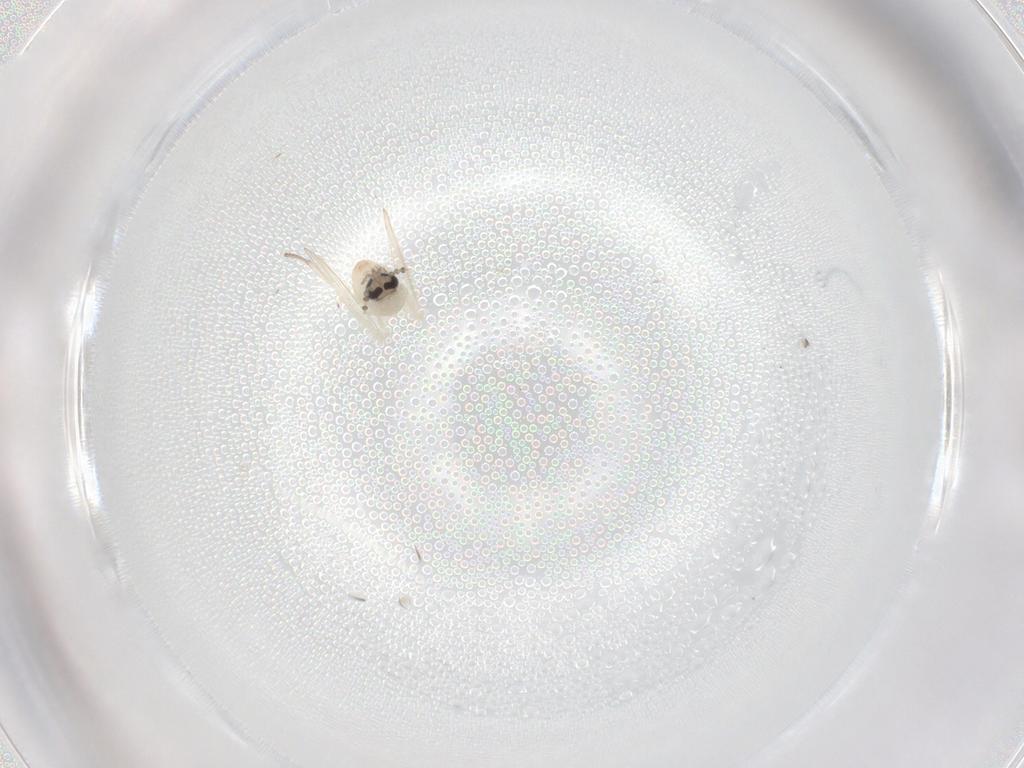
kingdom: Animalia
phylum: Arthropoda
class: Insecta
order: Diptera
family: Psychodidae
